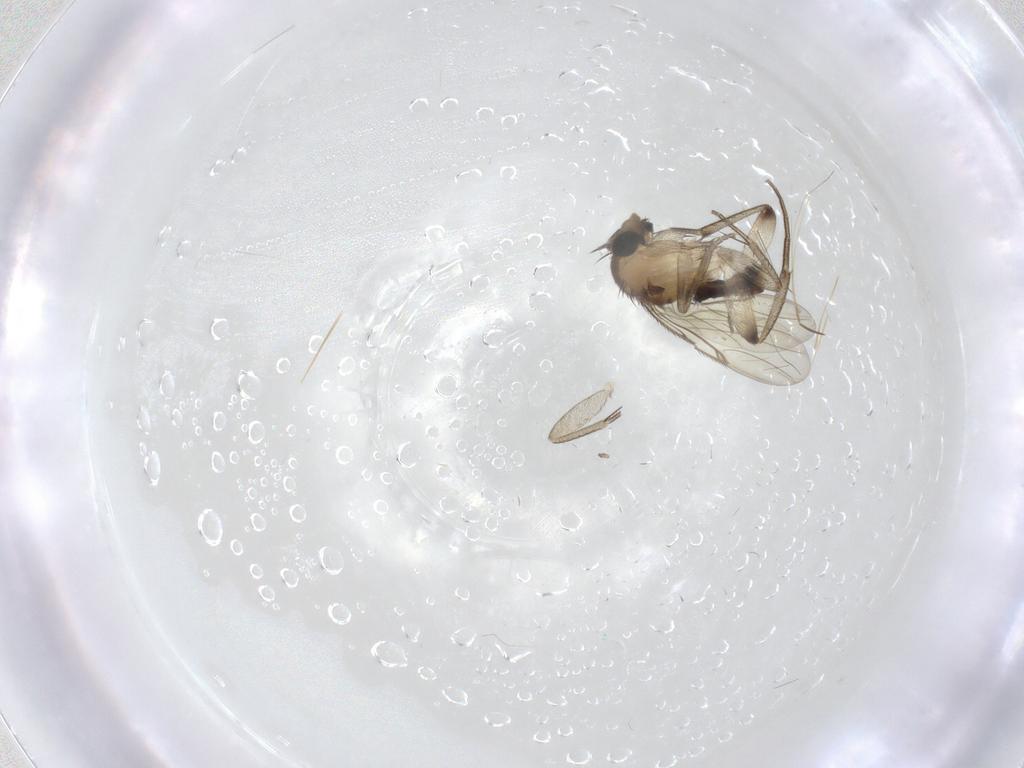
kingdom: Animalia
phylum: Arthropoda
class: Insecta
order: Diptera
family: Phoridae
